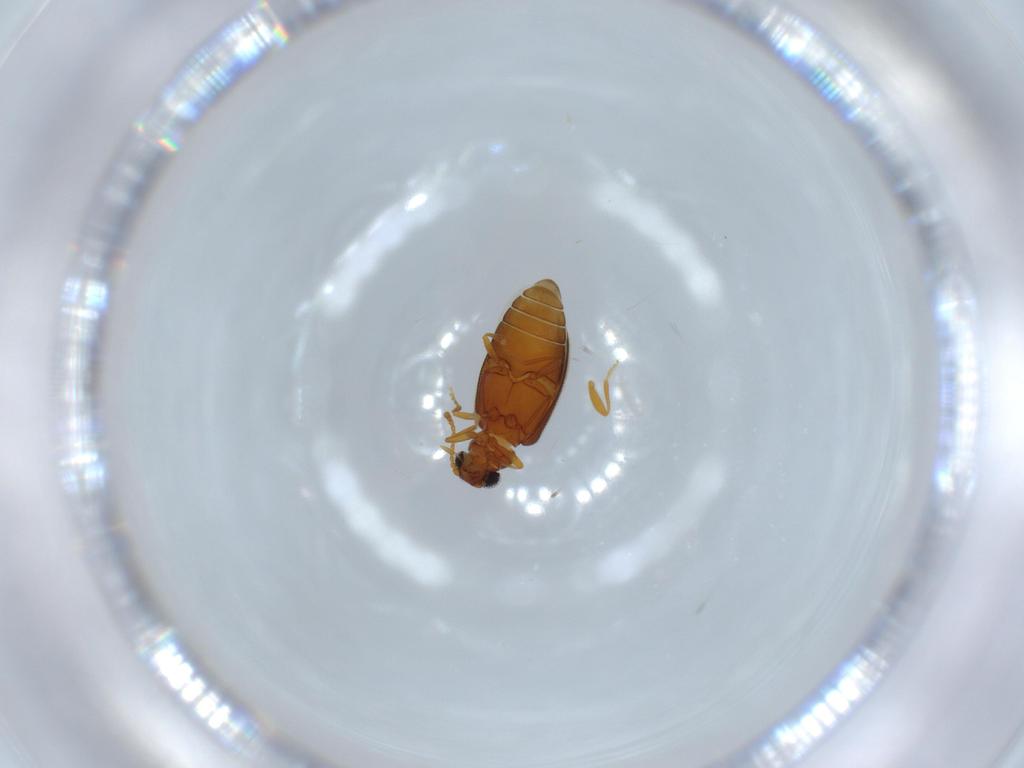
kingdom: Animalia
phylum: Arthropoda
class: Insecta
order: Coleoptera
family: Aderidae
